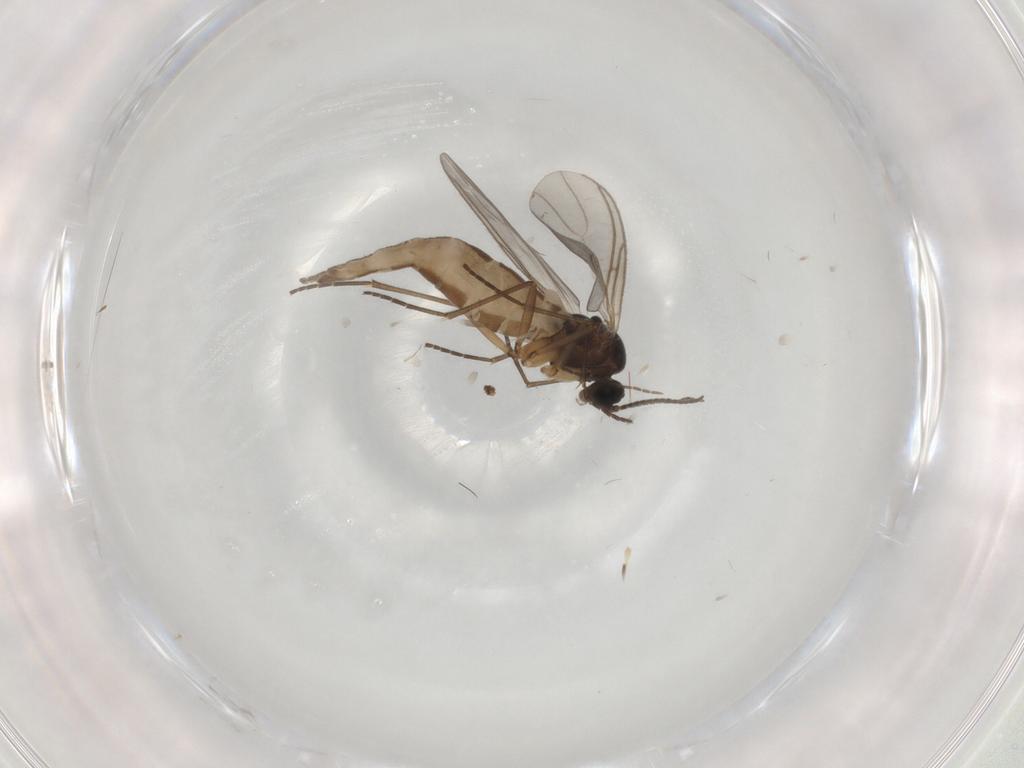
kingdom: Animalia
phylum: Arthropoda
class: Insecta
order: Diptera
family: Sciaridae
